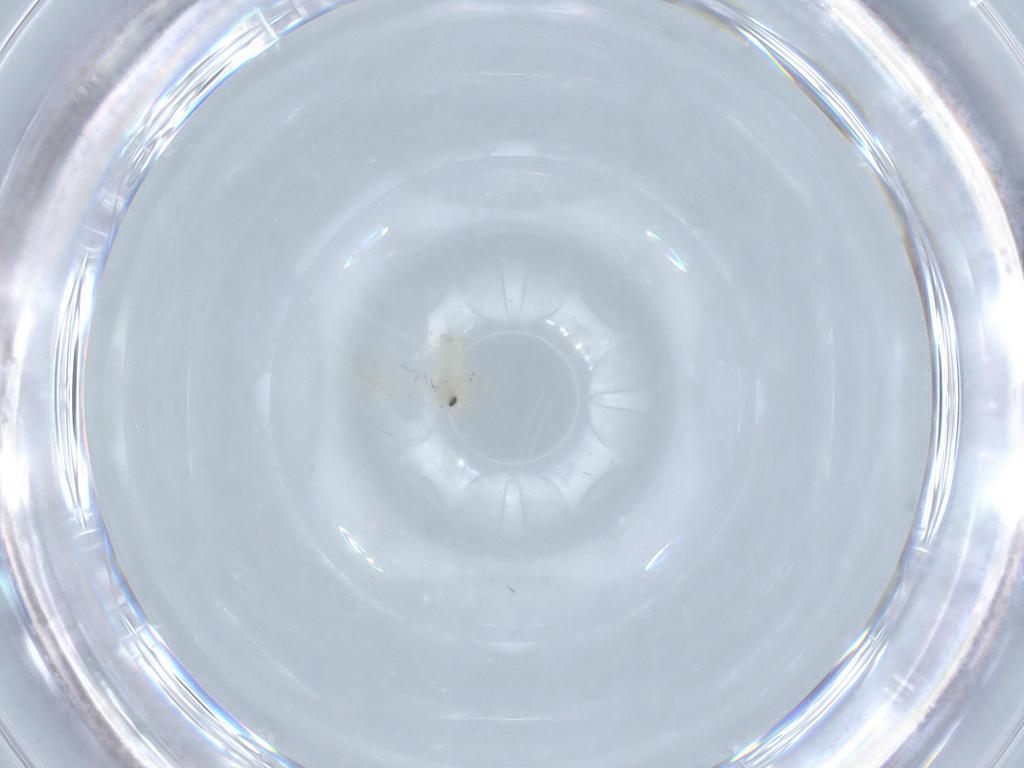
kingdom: Animalia
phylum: Arthropoda
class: Insecta
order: Hemiptera
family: Aleyrodidae
